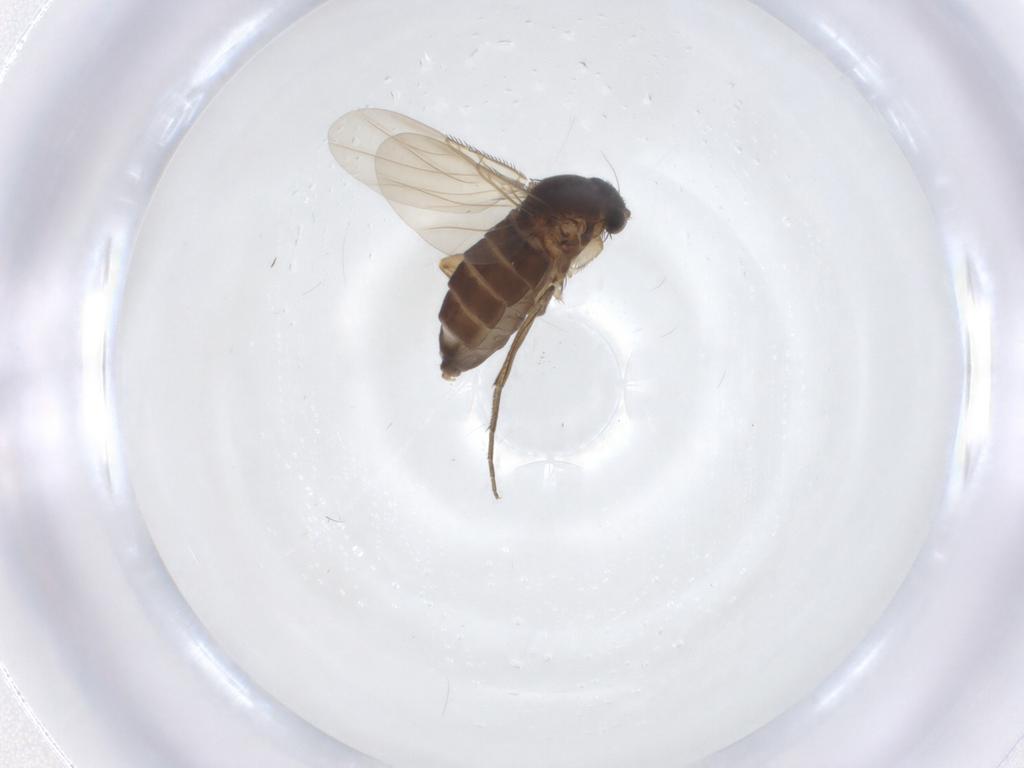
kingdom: Animalia
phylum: Arthropoda
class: Insecta
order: Diptera
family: Phoridae
